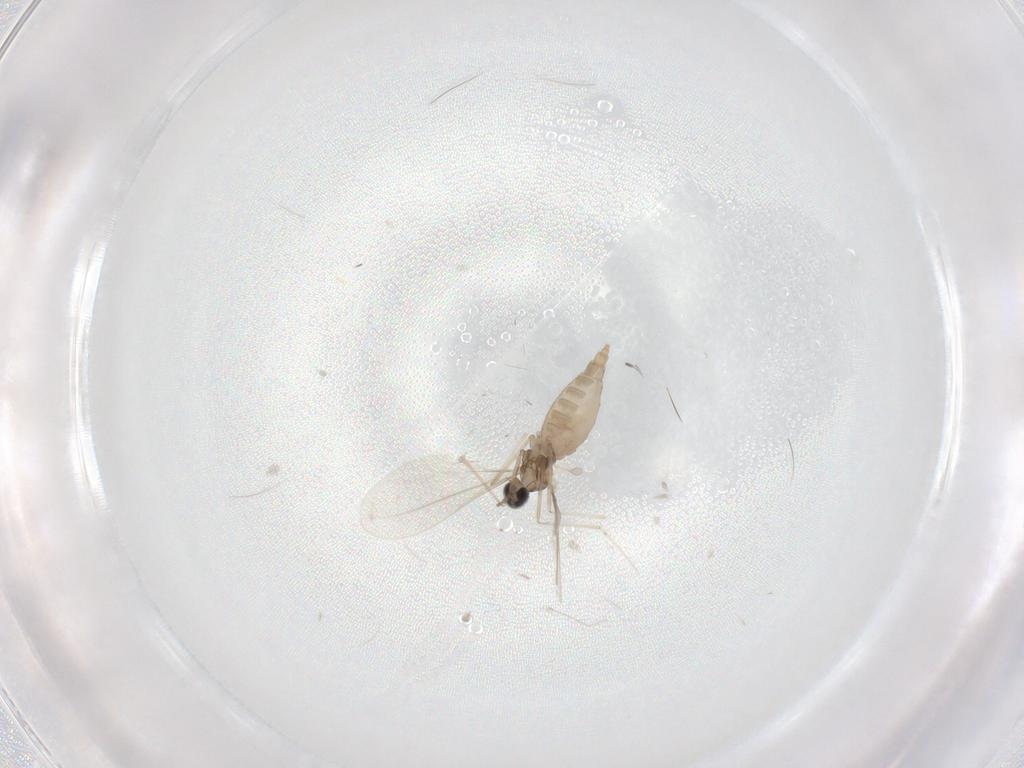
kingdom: Animalia
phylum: Arthropoda
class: Insecta
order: Diptera
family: Cecidomyiidae
